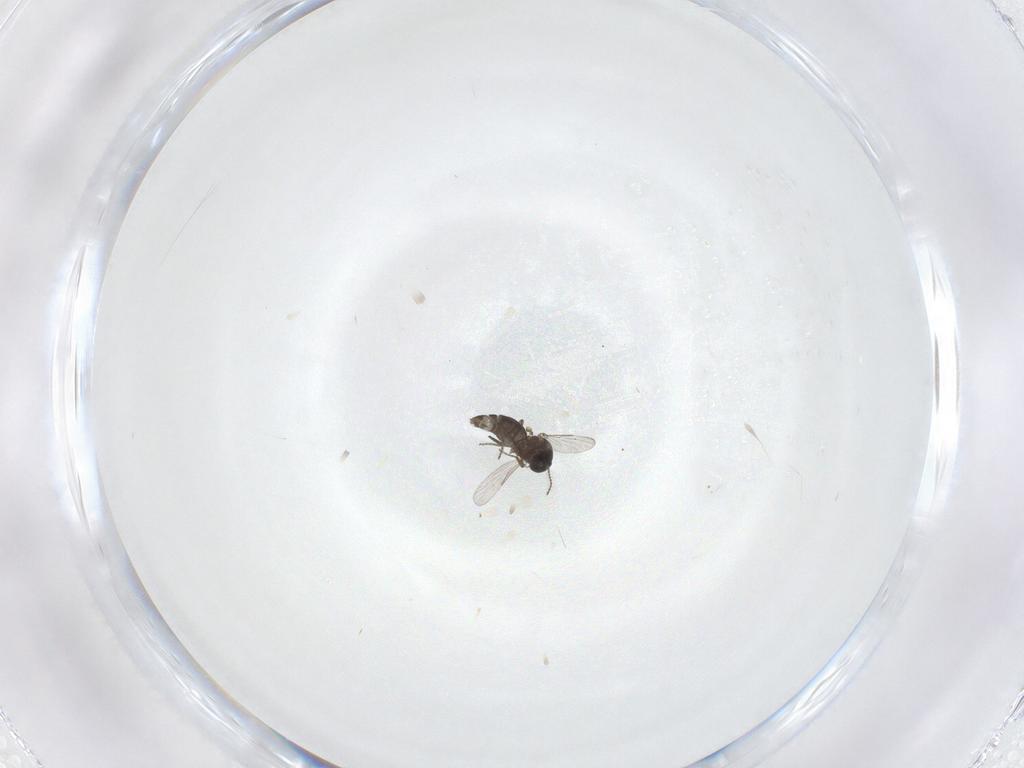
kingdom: Animalia
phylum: Arthropoda
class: Insecta
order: Diptera
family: Ceratopogonidae
